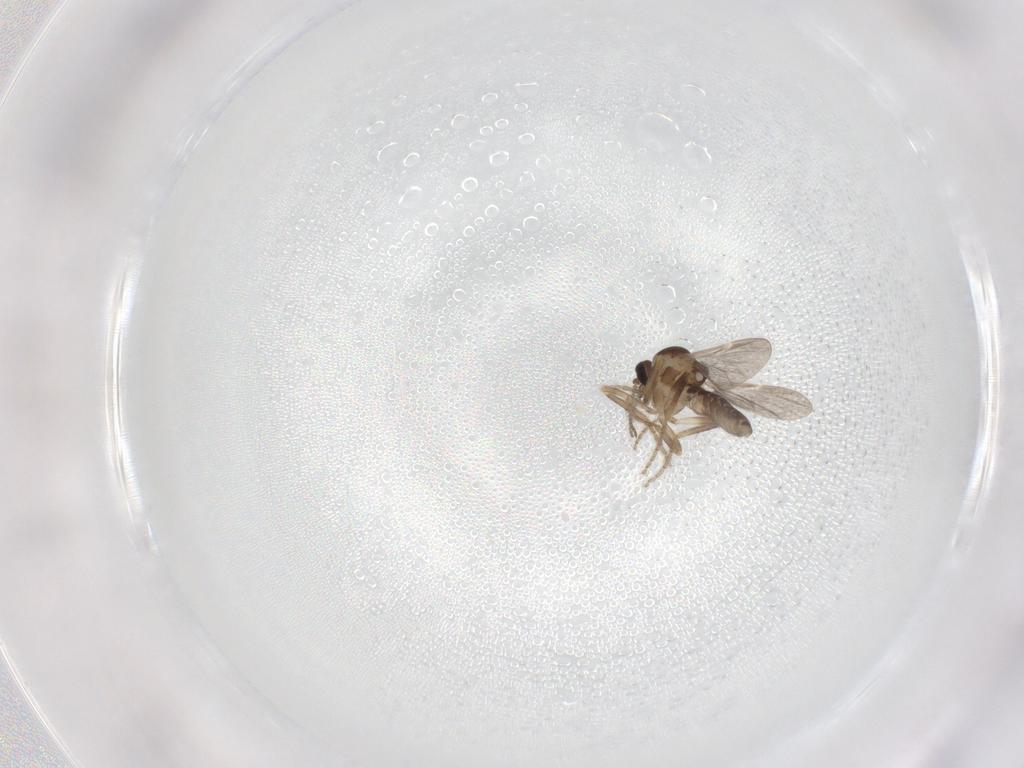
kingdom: Animalia
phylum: Arthropoda
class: Insecta
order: Diptera
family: Ceratopogonidae
